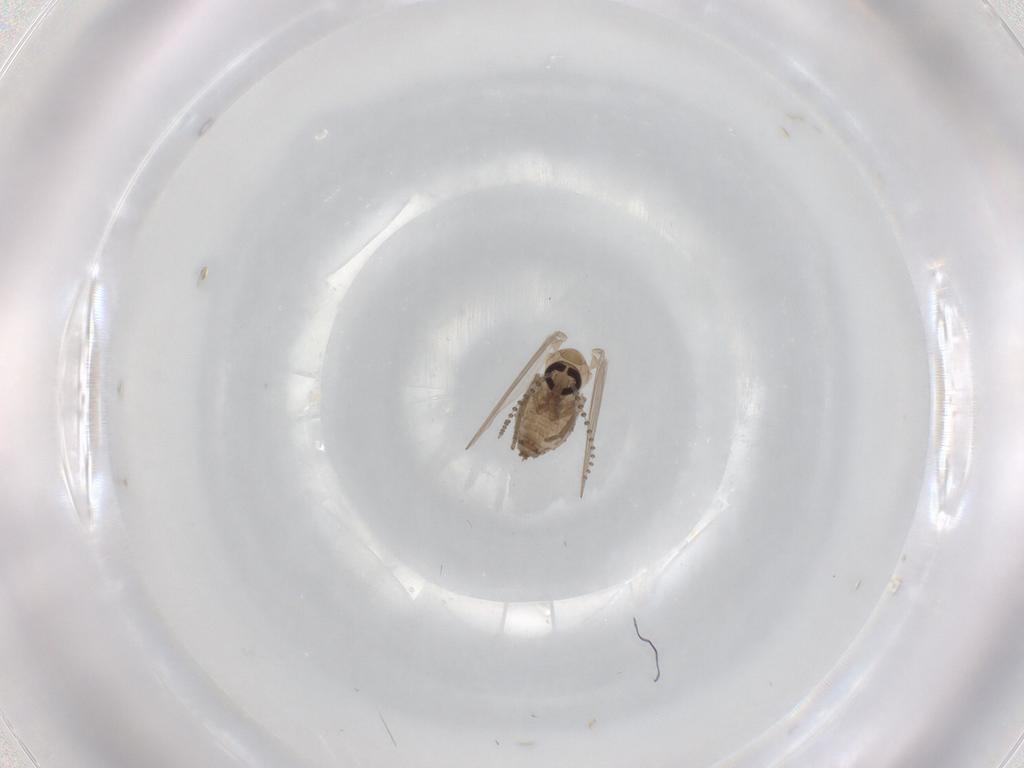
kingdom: Animalia
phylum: Arthropoda
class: Insecta
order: Diptera
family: Psychodidae
